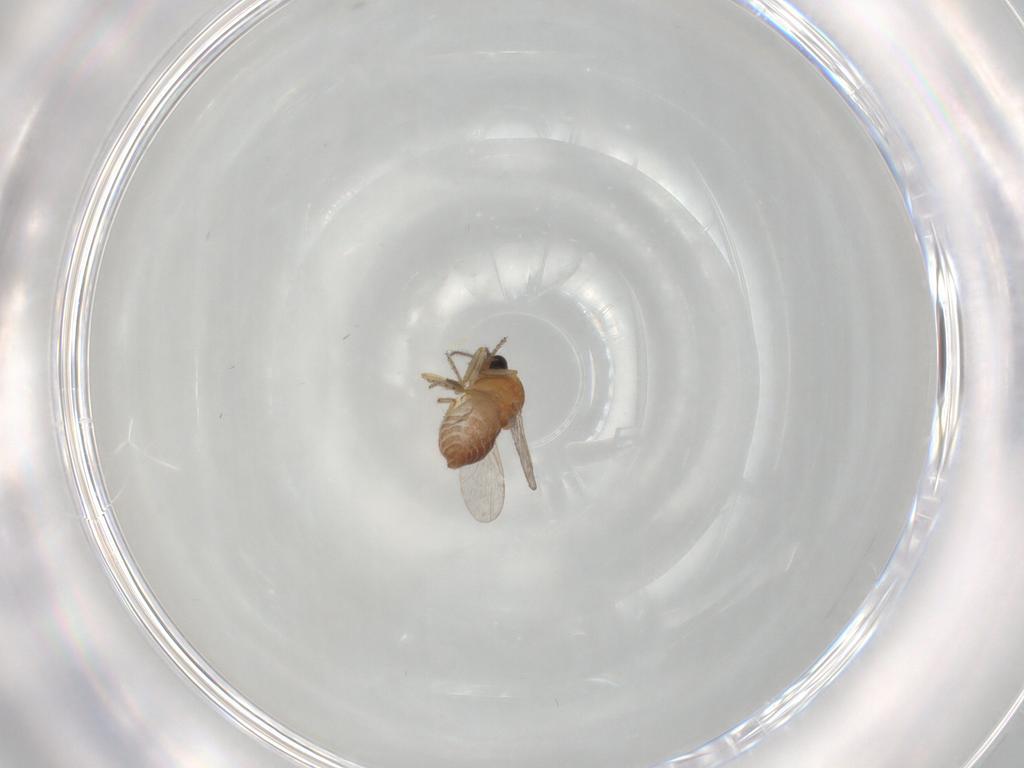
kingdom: Animalia
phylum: Arthropoda
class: Insecta
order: Diptera
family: Ceratopogonidae
